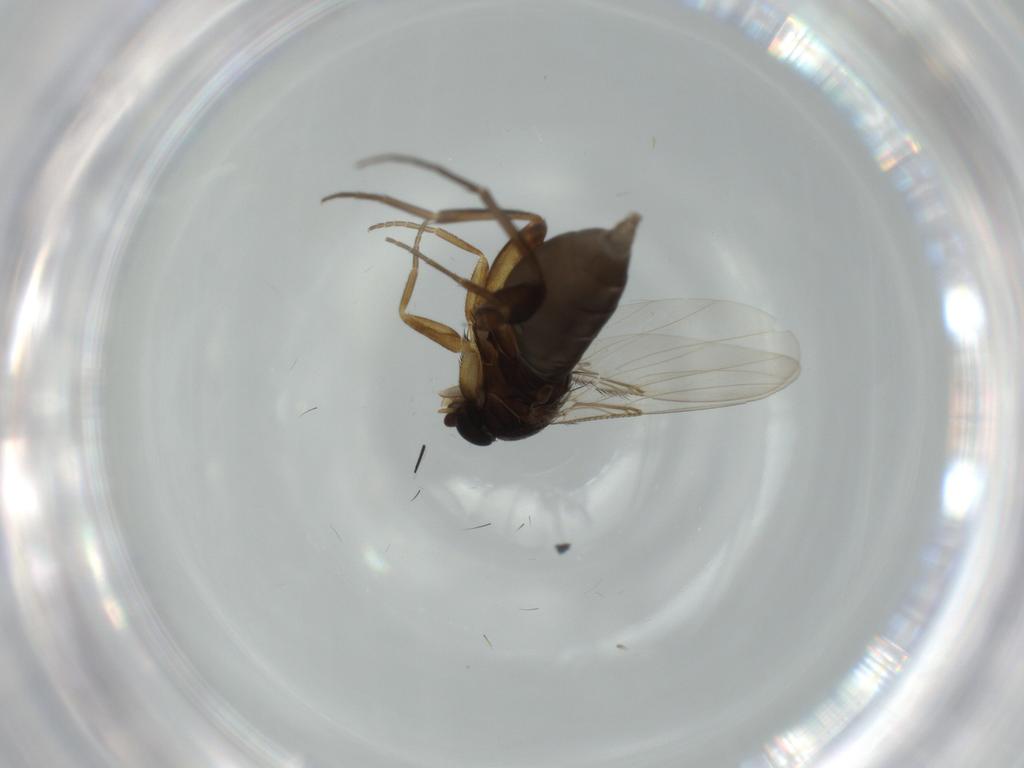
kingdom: Animalia
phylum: Arthropoda
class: Insecta
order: Diptera
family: Phoridae
